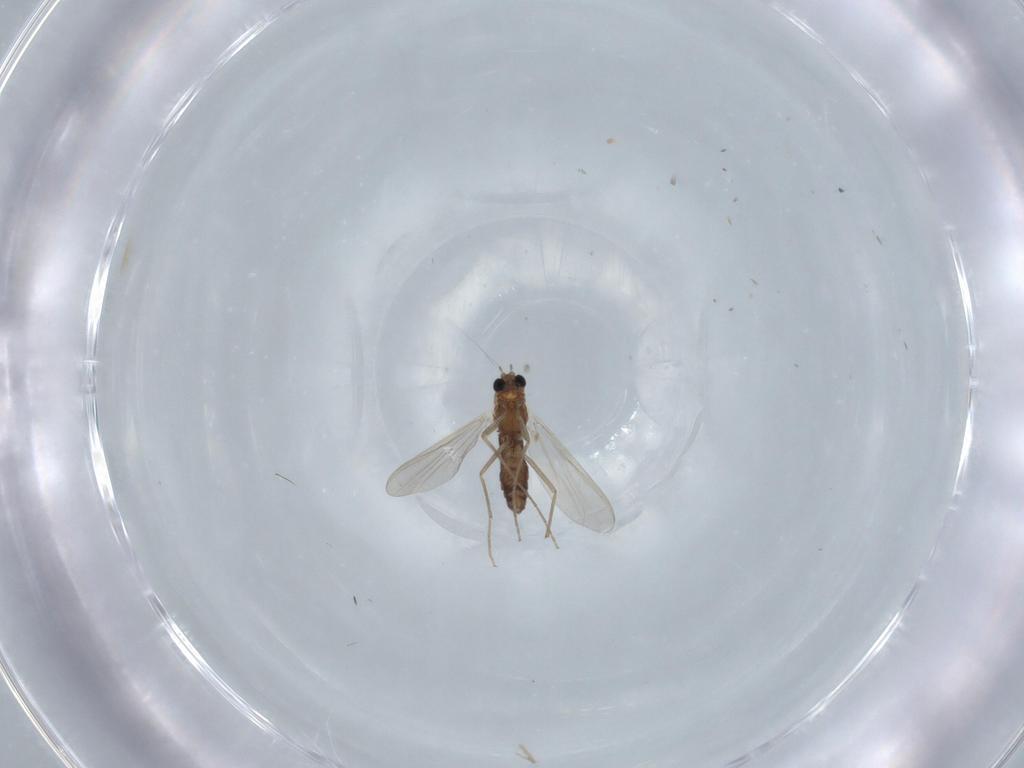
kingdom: Animalia
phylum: Arthropoda
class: Insecta
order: Diptera
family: Chironomidae
